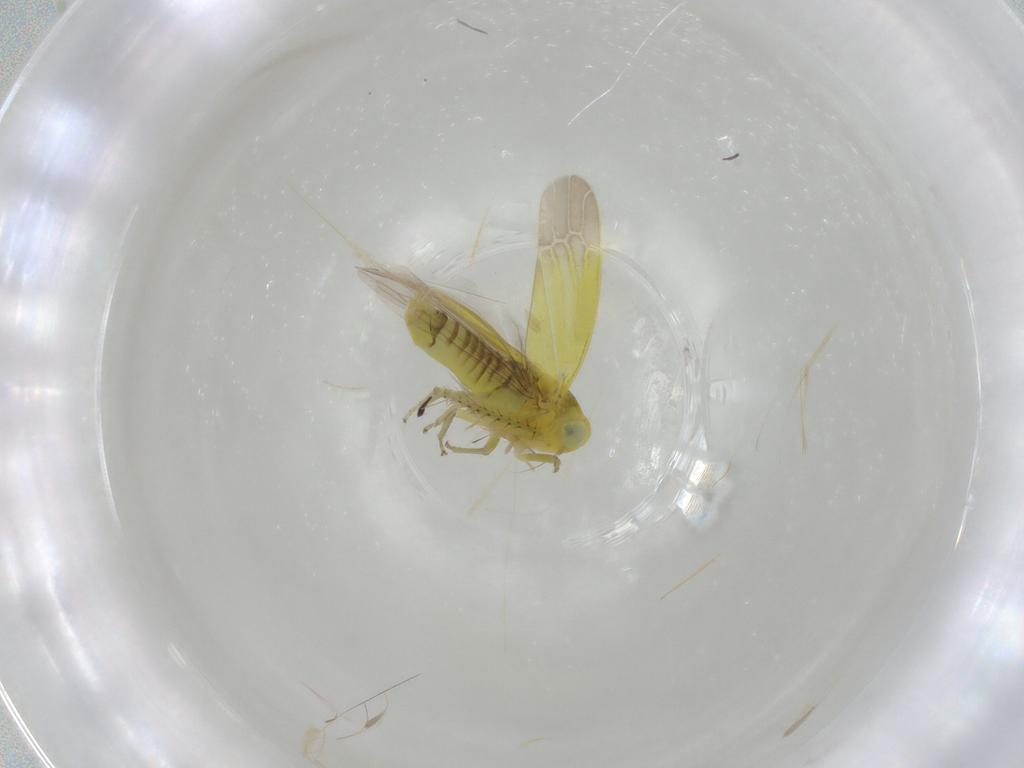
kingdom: Animalia
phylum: Arthropoda
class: Insecta
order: Hemiptera
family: Cicadellidae
